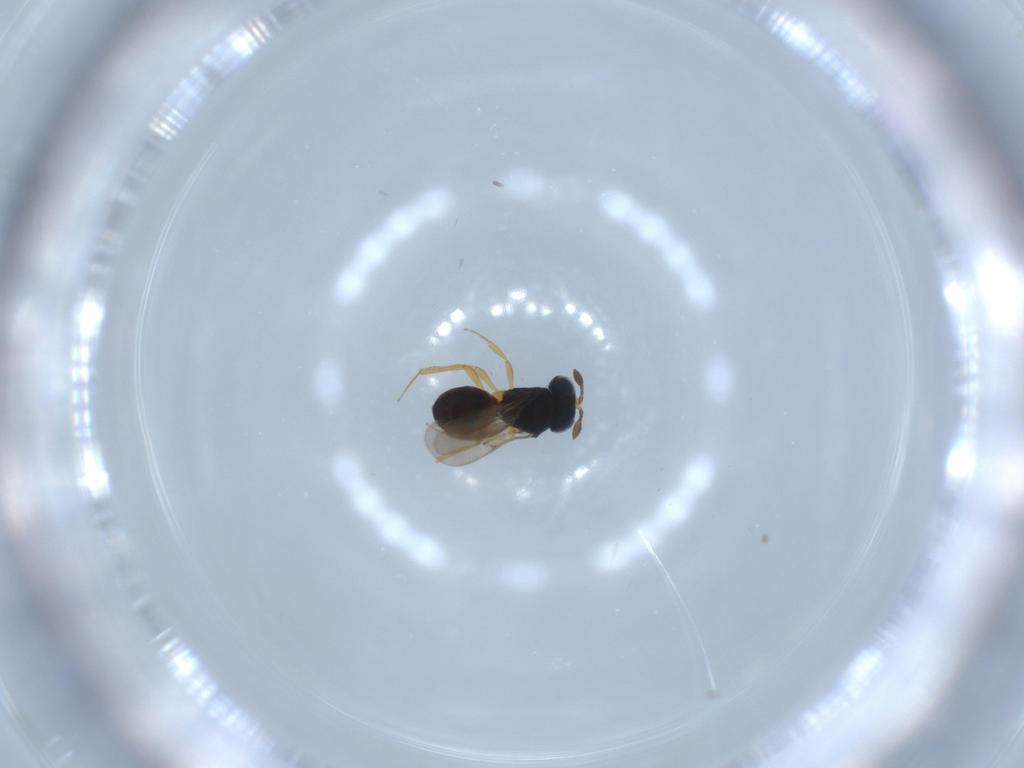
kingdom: Animalia
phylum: Arthropoda
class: Insecta
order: Hymenoptera
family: Scelionidae
